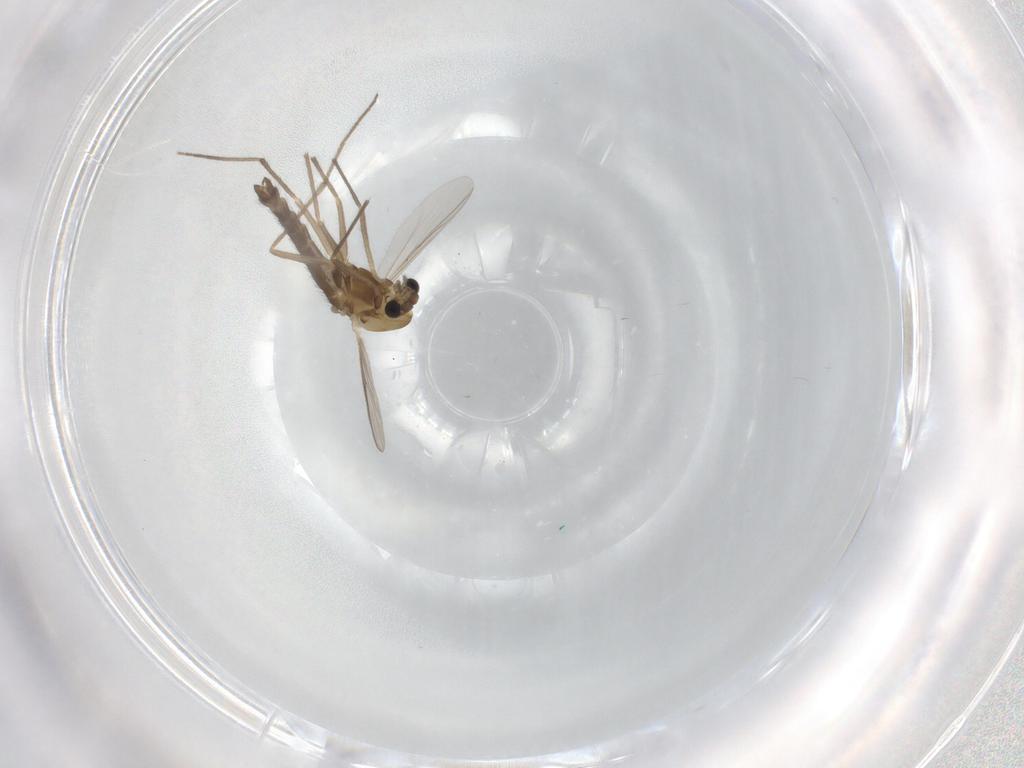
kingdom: Animalia
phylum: Arthropoda
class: Insecta
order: Diptera
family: Chironomidae
